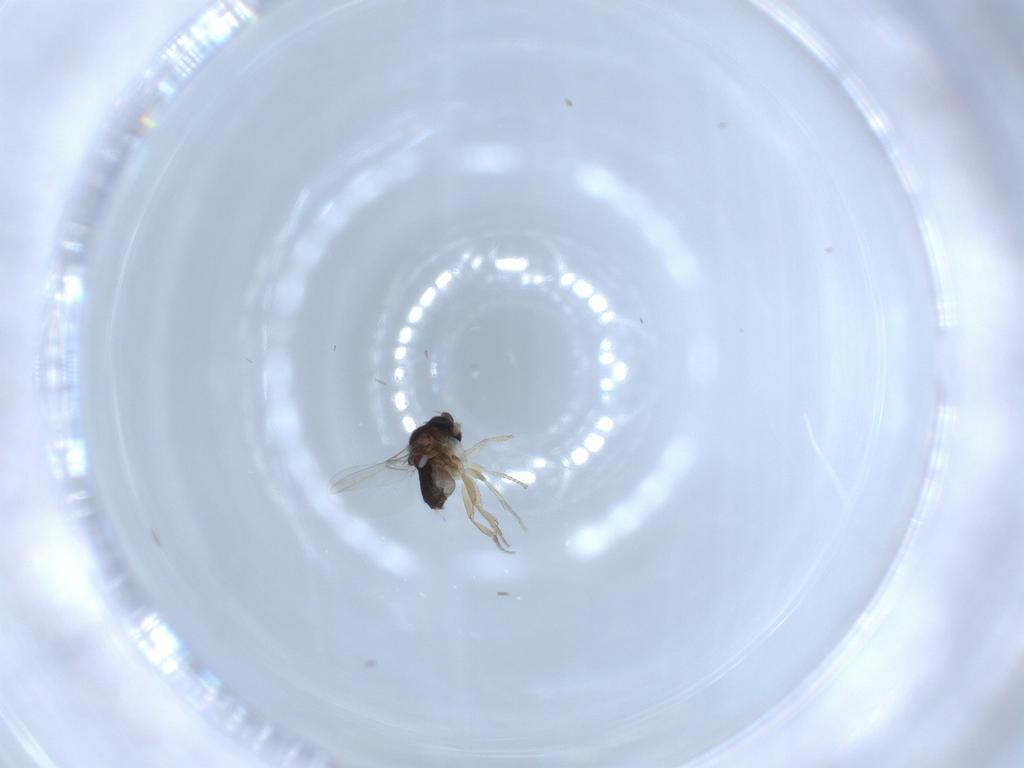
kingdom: Animalia
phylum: Arthropoda
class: Insecta
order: Diptera
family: Phoridae
